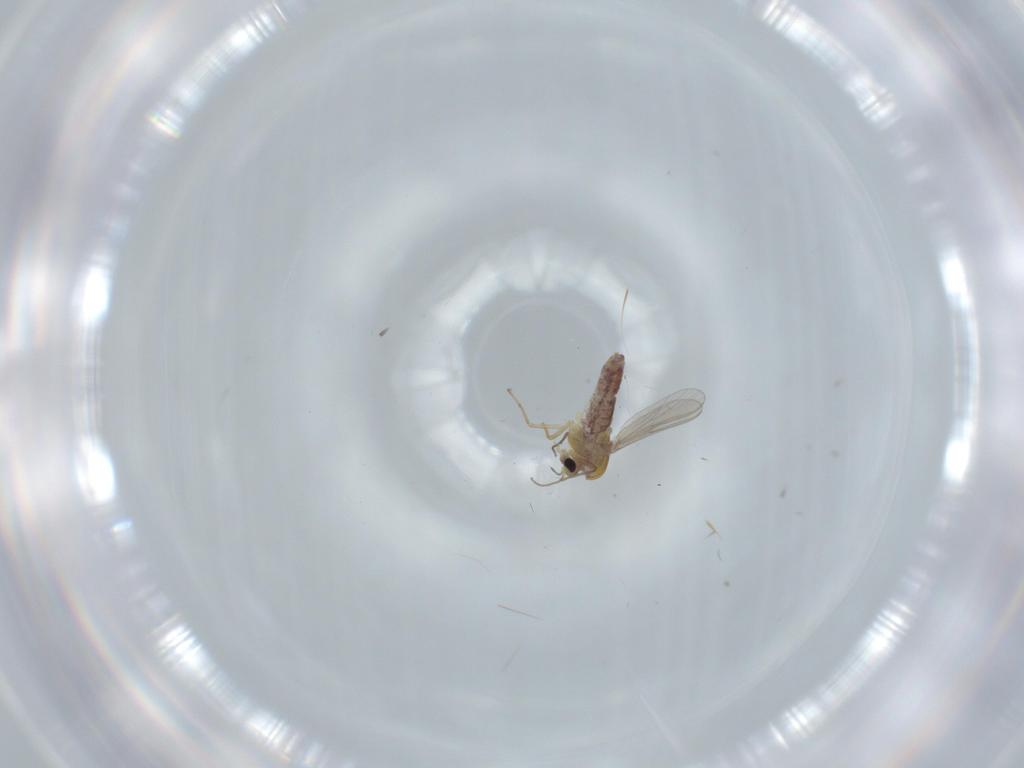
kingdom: Animalia
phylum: Arthropoda
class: Insecta
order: Diptera
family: Chironomidae
